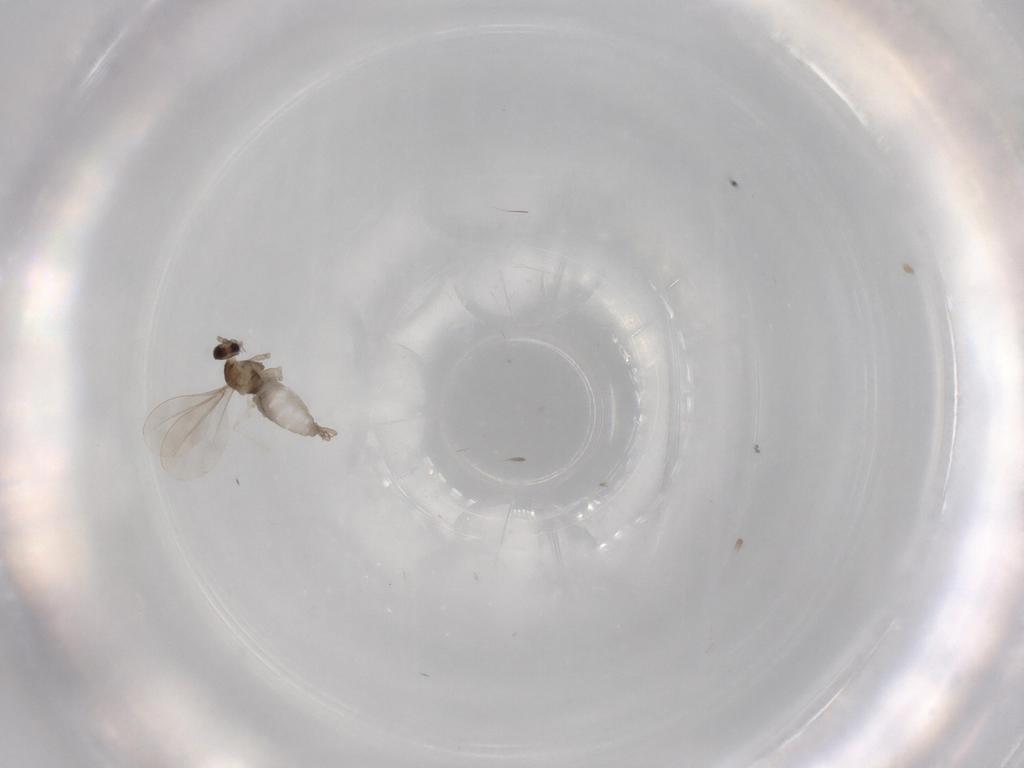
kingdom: Animalia
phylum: Arthropoda
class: Insecta
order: Diptera
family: Cecidomyiidae
